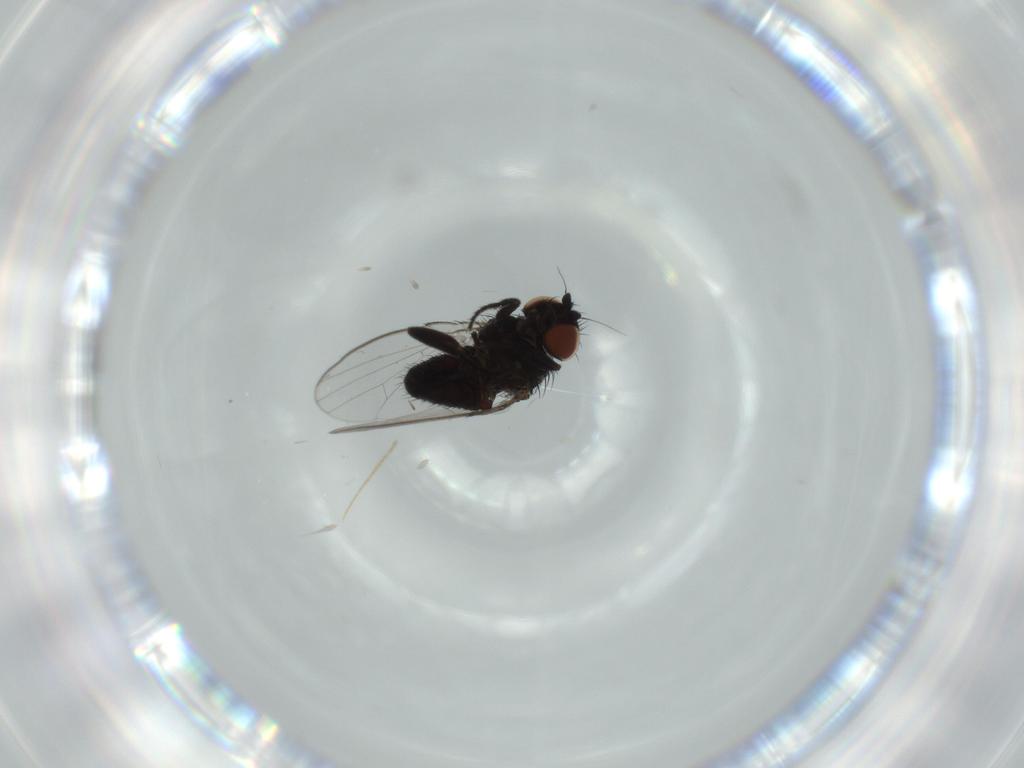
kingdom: Animalia
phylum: Arthropoda
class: Insecta
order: Diptera
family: Milichiidae
